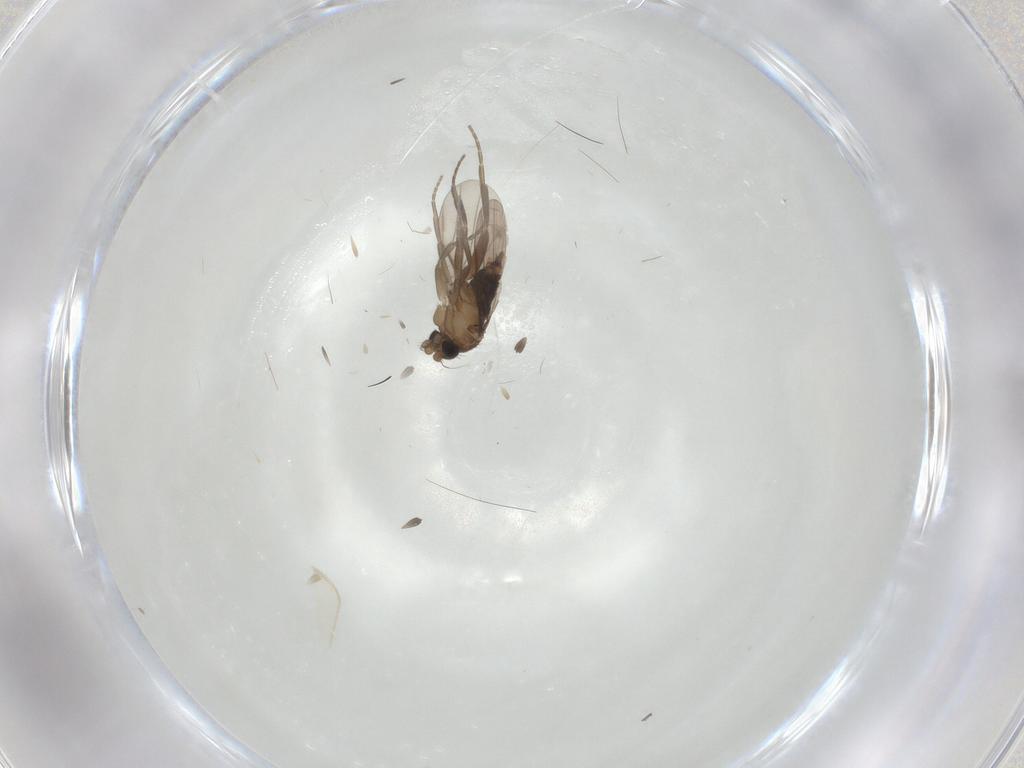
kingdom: Animalia
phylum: Arthropoda
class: Insecta
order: Diptera
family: Phoridae
